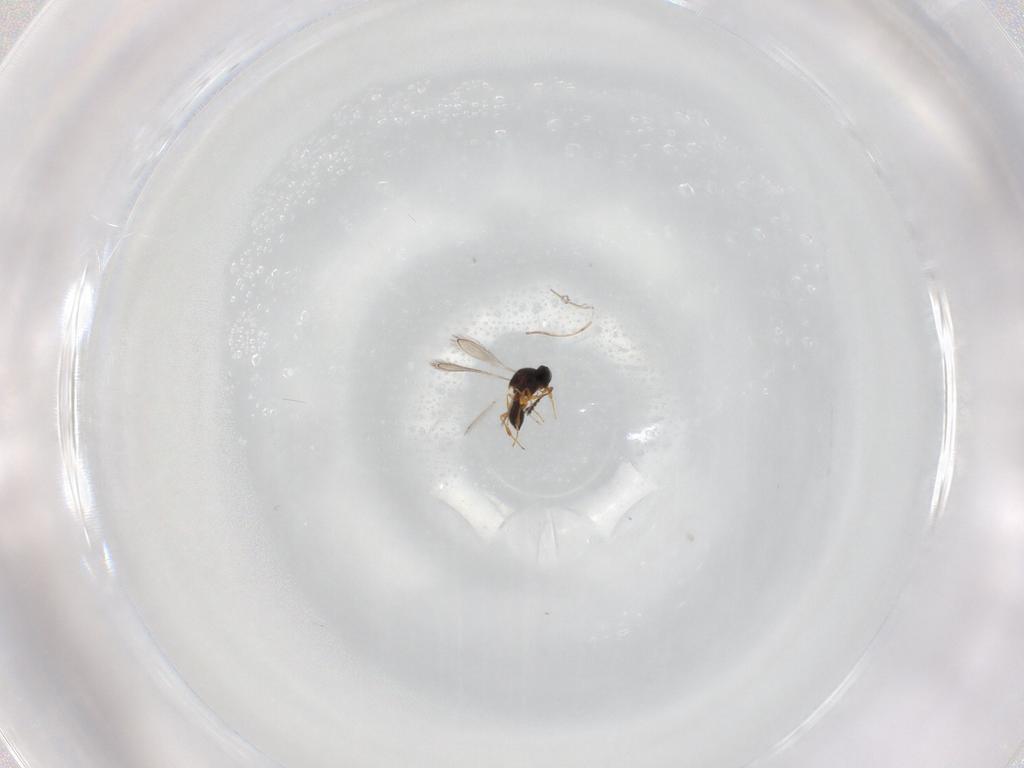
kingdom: Animalia
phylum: Arthropoda
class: Insecta
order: Hymenoptera
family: Platygastridae
